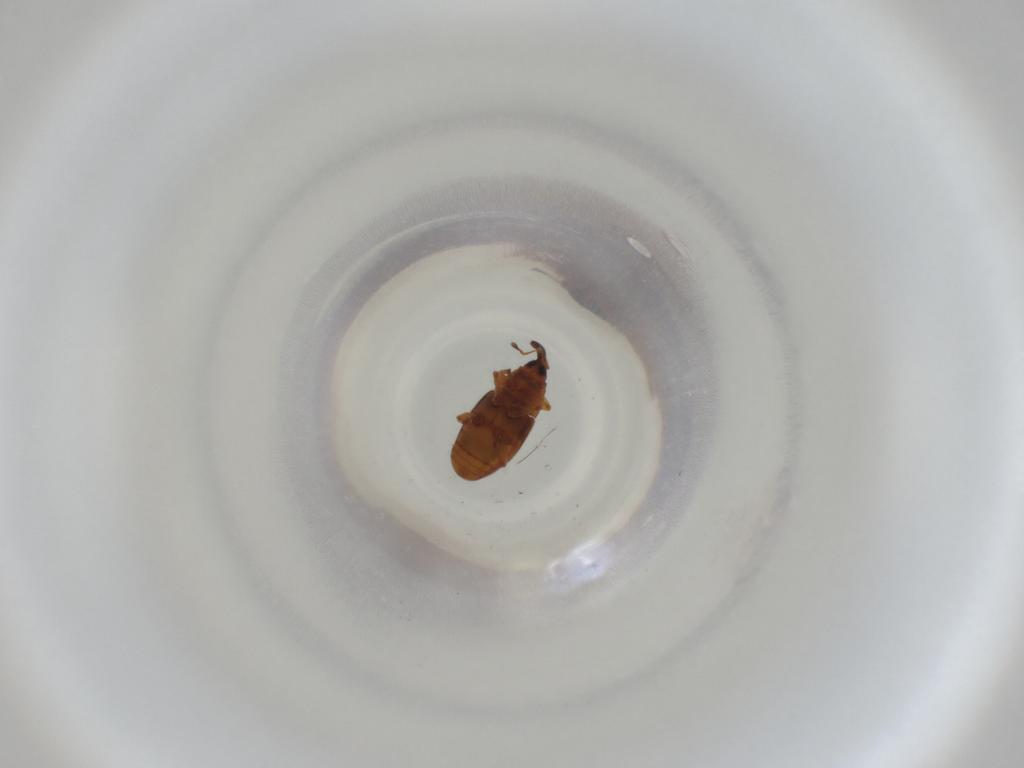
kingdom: Animalia
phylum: Arthropoda
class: Insecta
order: Coleoptera
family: Curculionidae
